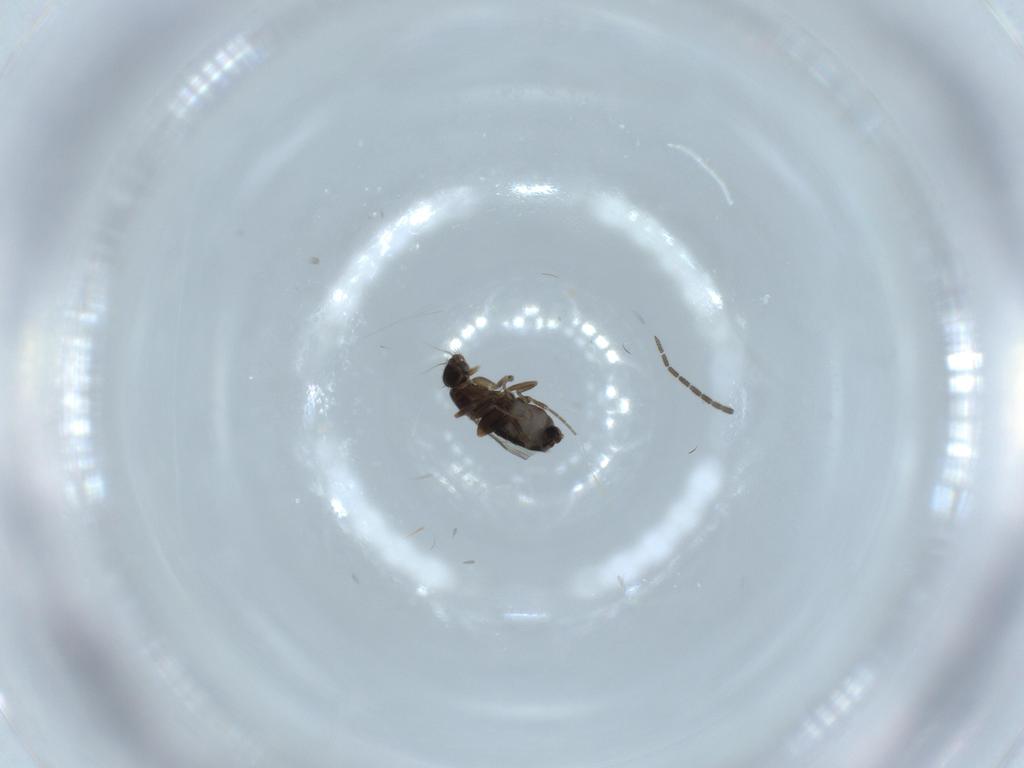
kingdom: Animalia
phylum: Arthropoda
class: Insecta
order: Diptera
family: Phoridae
